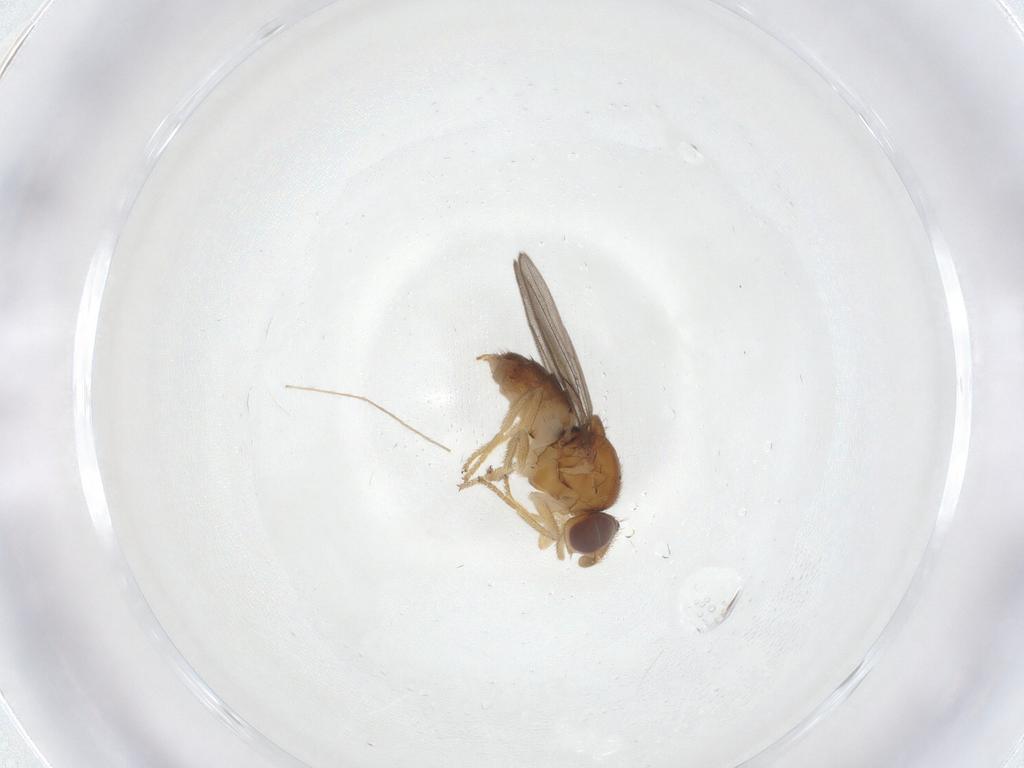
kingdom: Animalia
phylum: Arthropoda
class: Insecta
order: Diptera
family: Chloropidae
